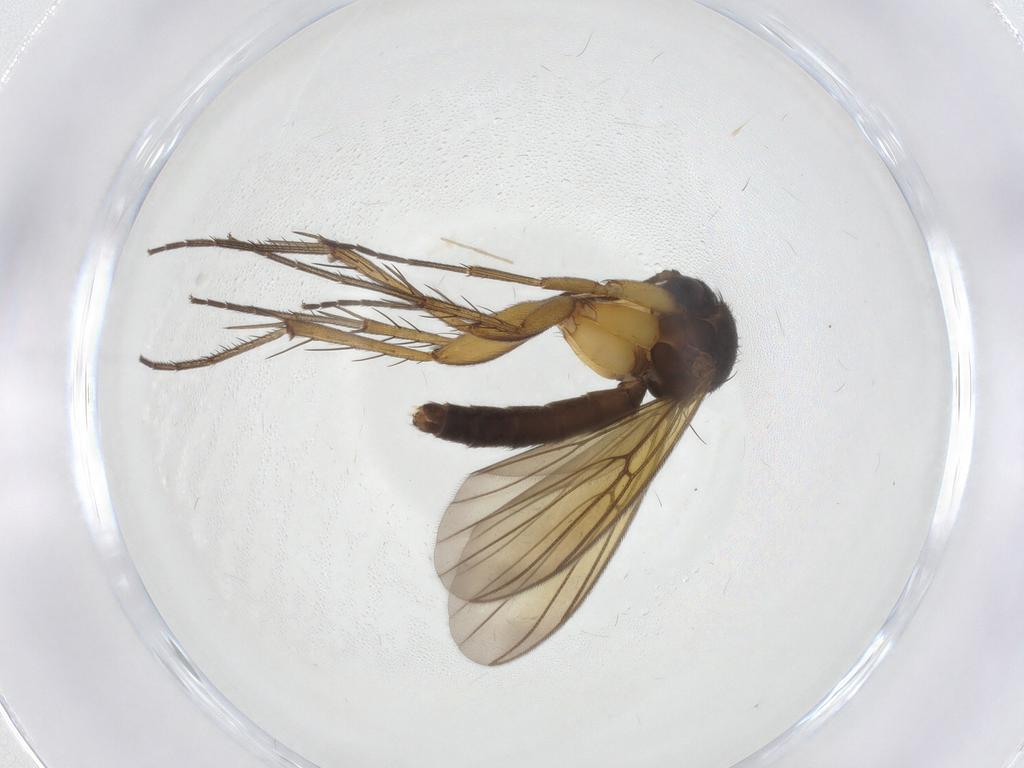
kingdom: Animalia
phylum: Arthropoda
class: Insecta
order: Diptera
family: Mycetophilidae
